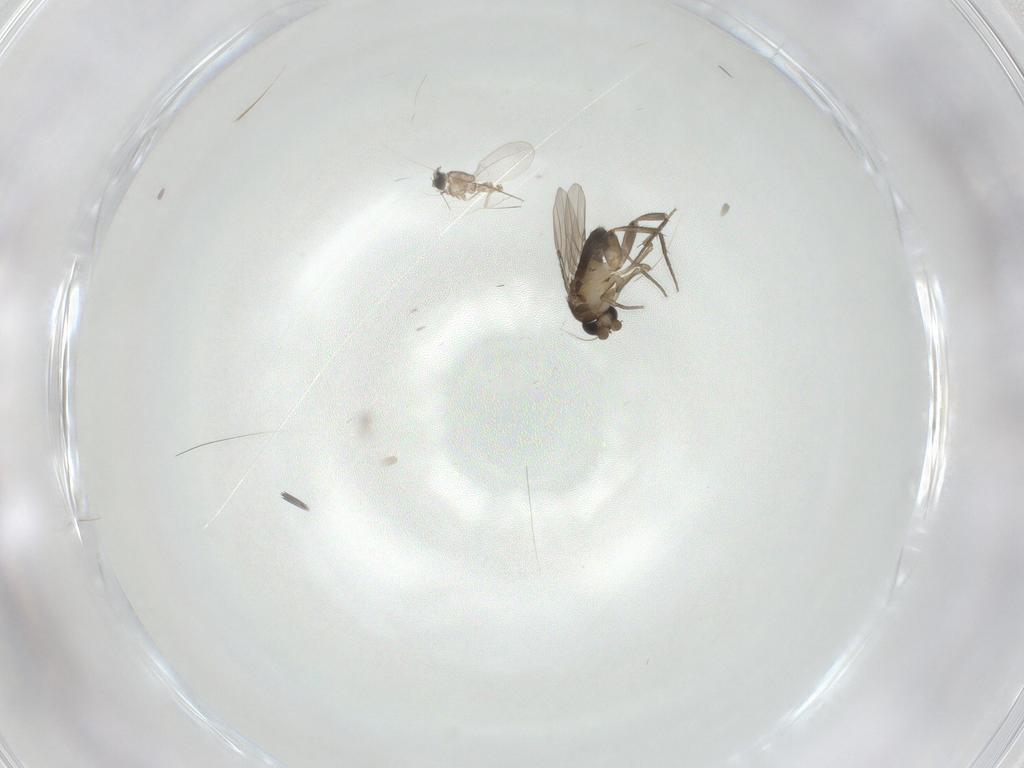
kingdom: Animalia
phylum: Arthropoda
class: Insecta
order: Diptera
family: Phoridae
